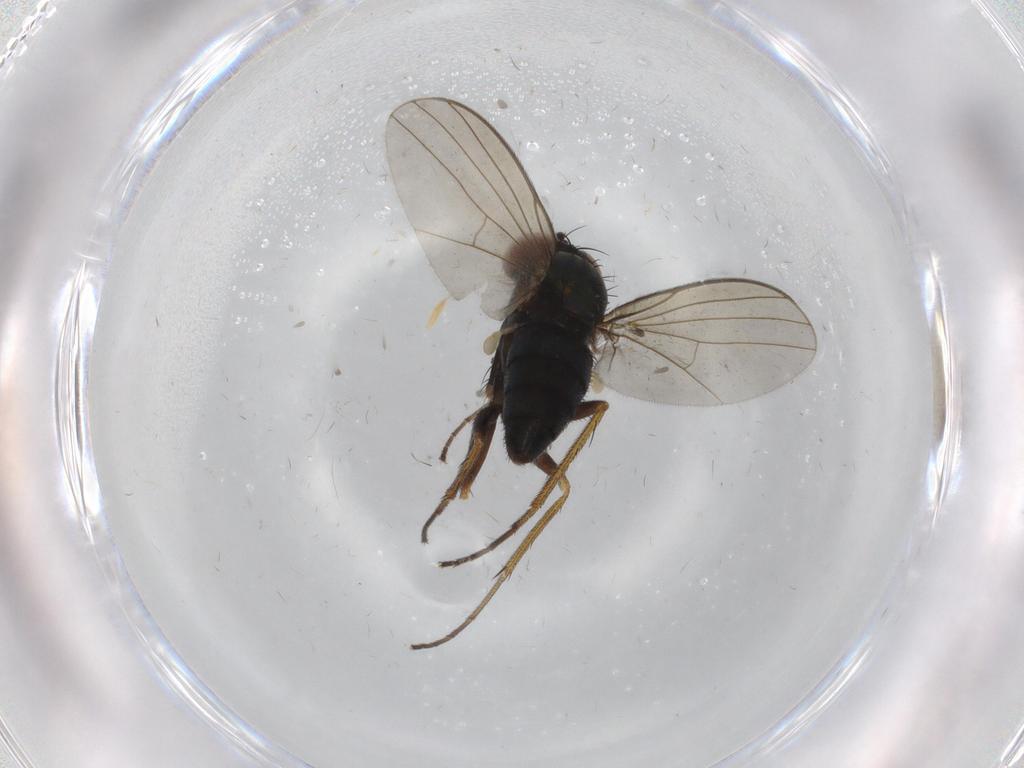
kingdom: Animalia
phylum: Arthropoda
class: Insecta
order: Diptera
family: Dolichopodidae
